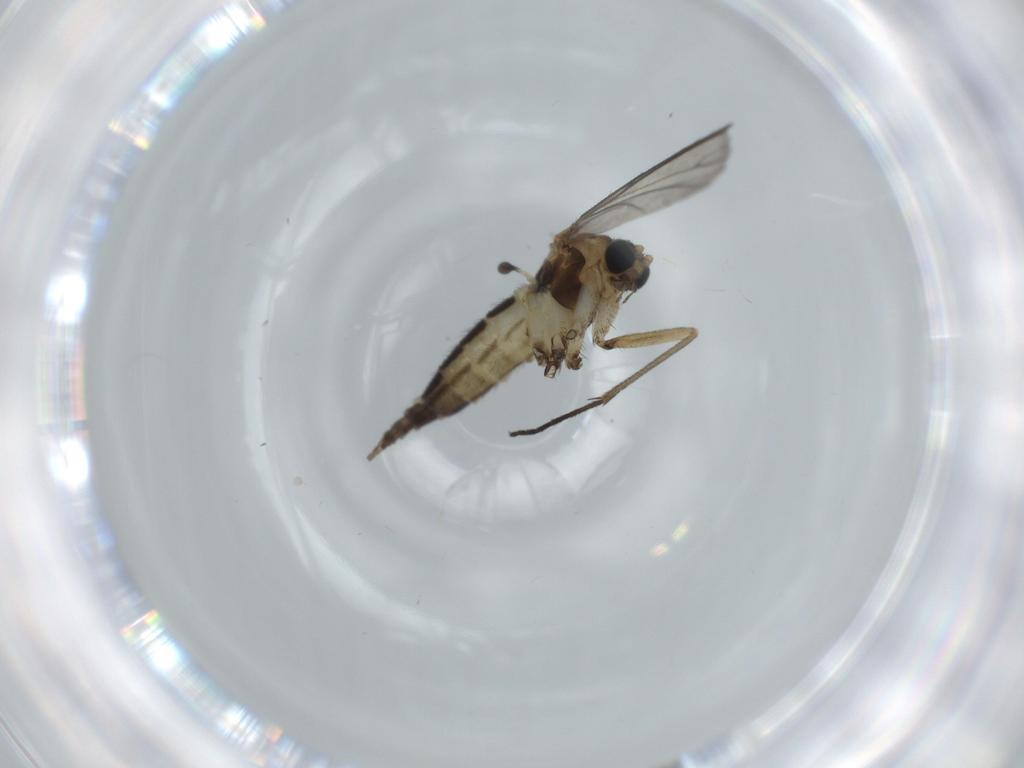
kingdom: Animalia
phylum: Arthropoda
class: Insecta
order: Diptera
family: Sciaridae
